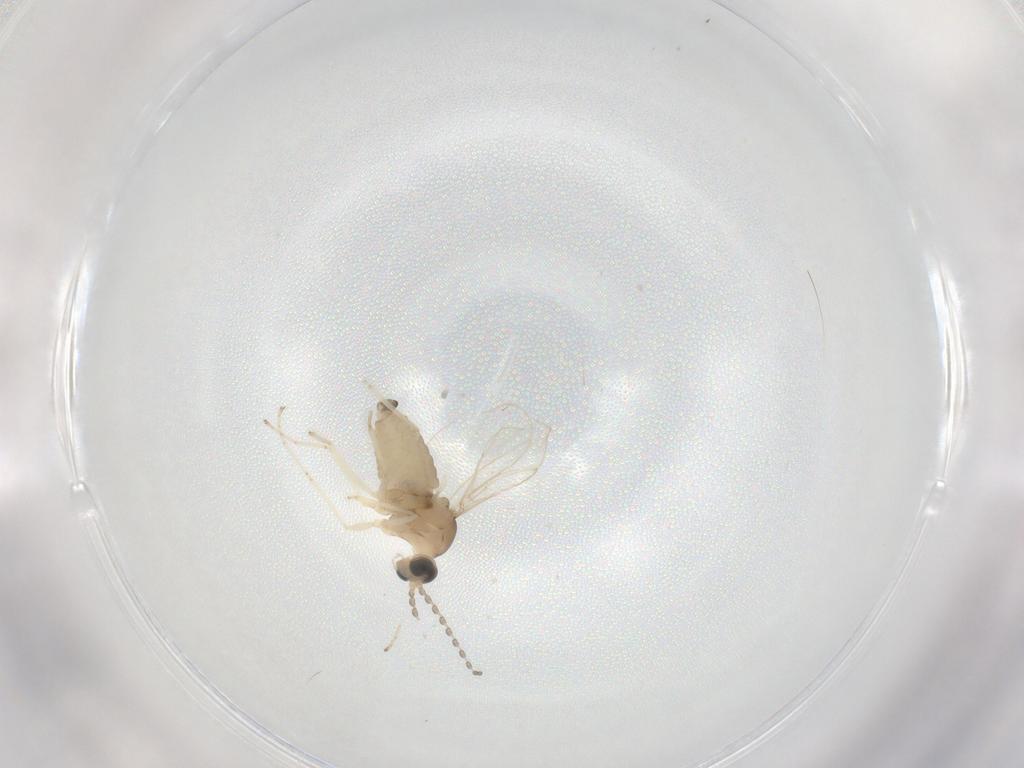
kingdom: Animalia
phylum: Arthropoda
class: Insecta
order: Diptera
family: Cecidomyiidae
